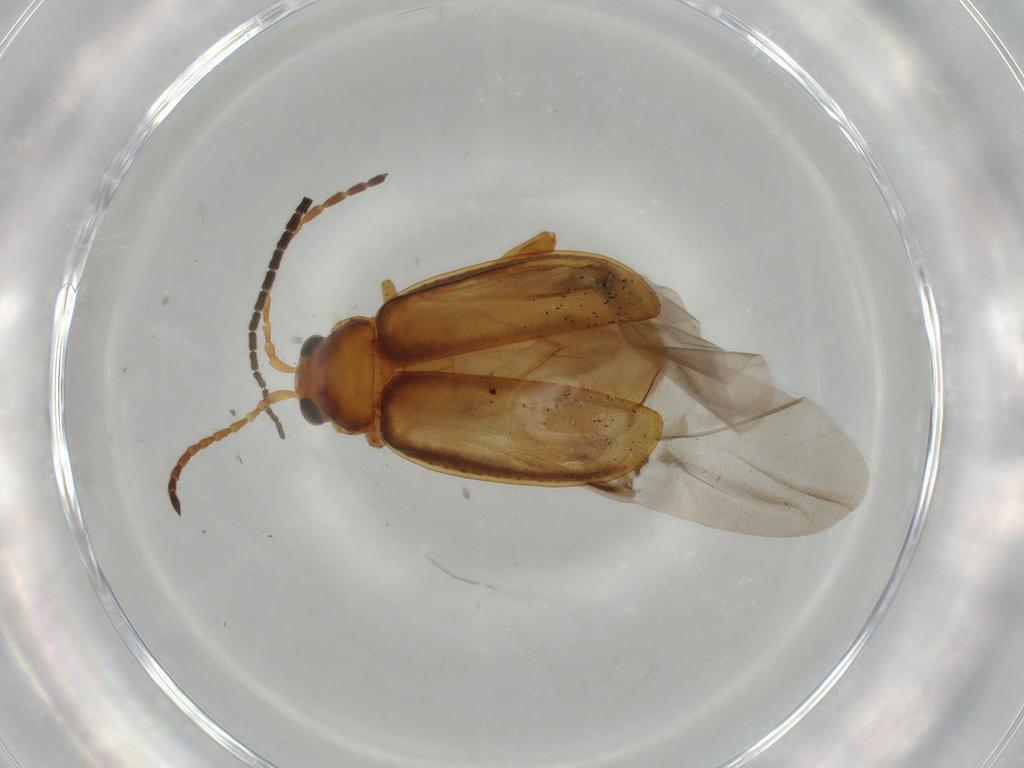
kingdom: Animalia
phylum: Arthropoda
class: Insecta
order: Coleoptera
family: Chrysomelidae
